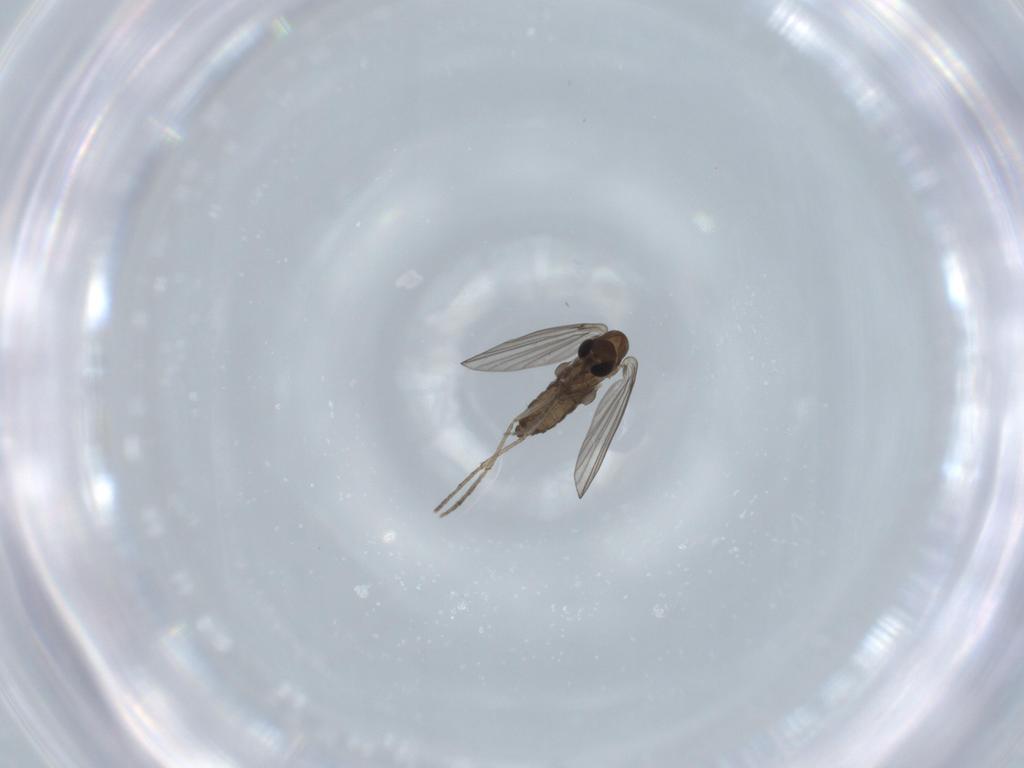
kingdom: Animalia
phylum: Arthropoda
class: Insecta
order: Diptera
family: Psychodidae
